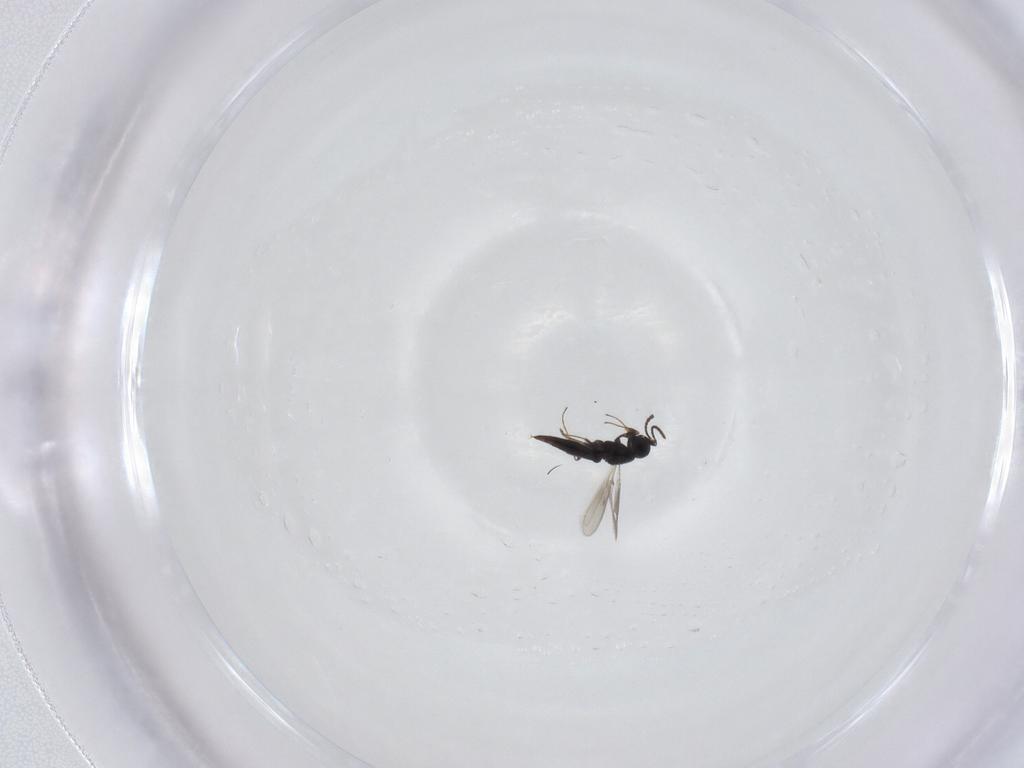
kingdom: Animalia
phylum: Arthropoda
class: Insecta
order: Hymenoptera
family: Scelionidae
